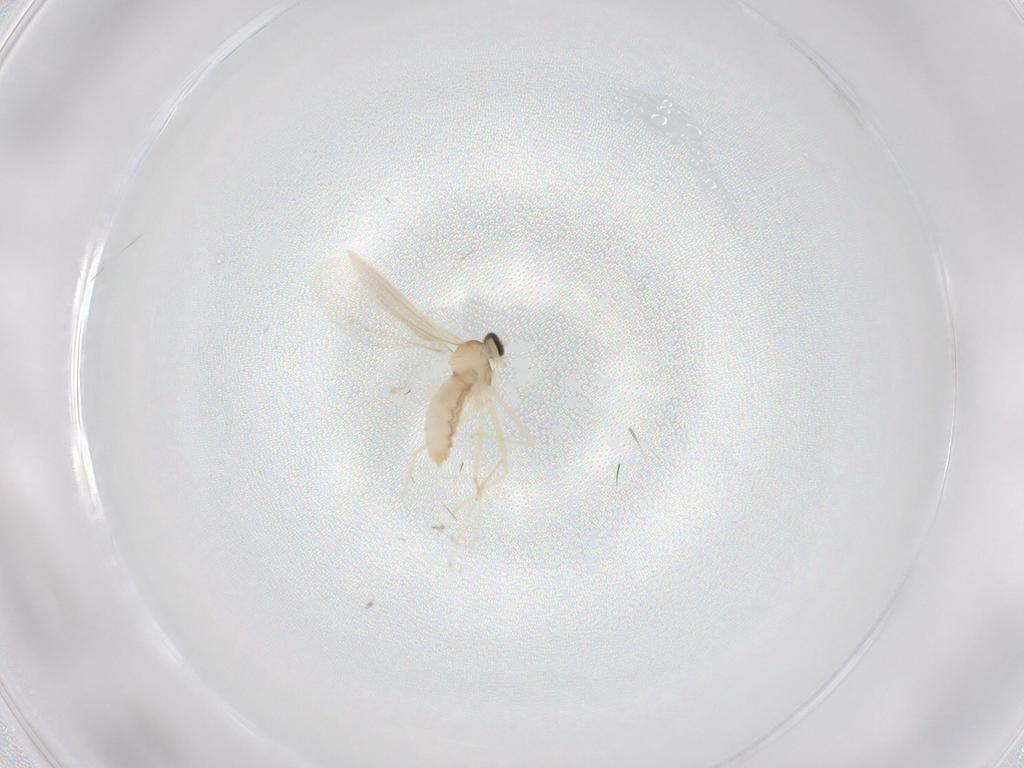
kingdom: Animalia
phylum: Arthropoda
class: Insecta
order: Diptera
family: Cecidomyiidae
